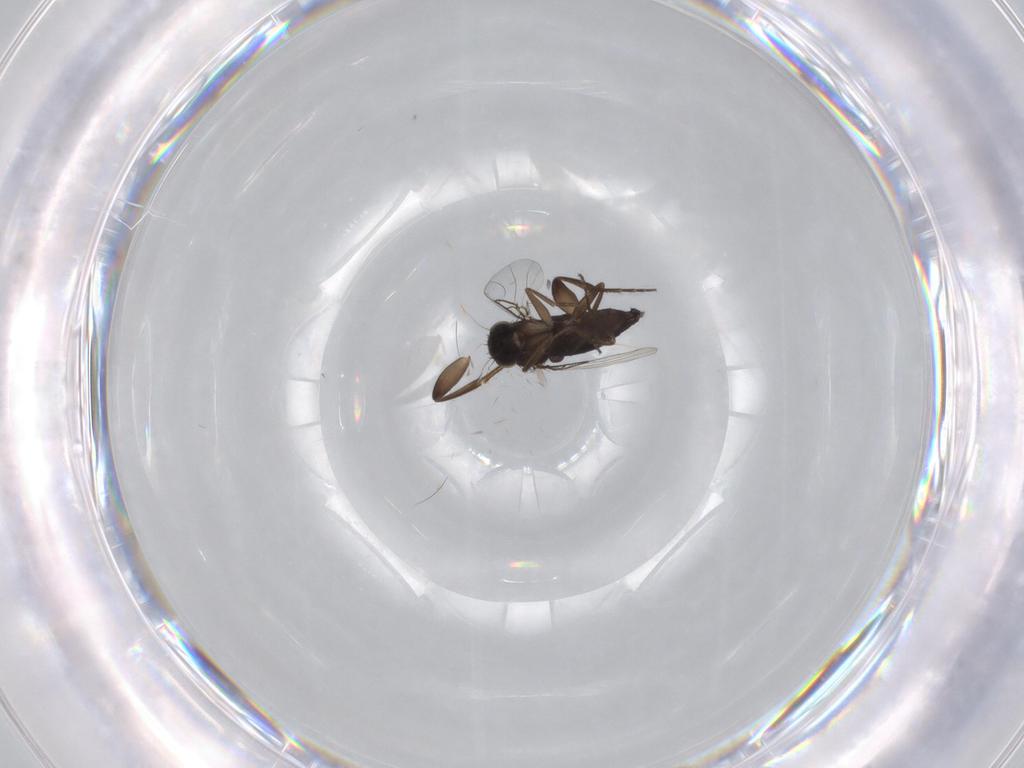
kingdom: Animalia
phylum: Arthropoda
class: Insecta
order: Diptera
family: Phoridae
